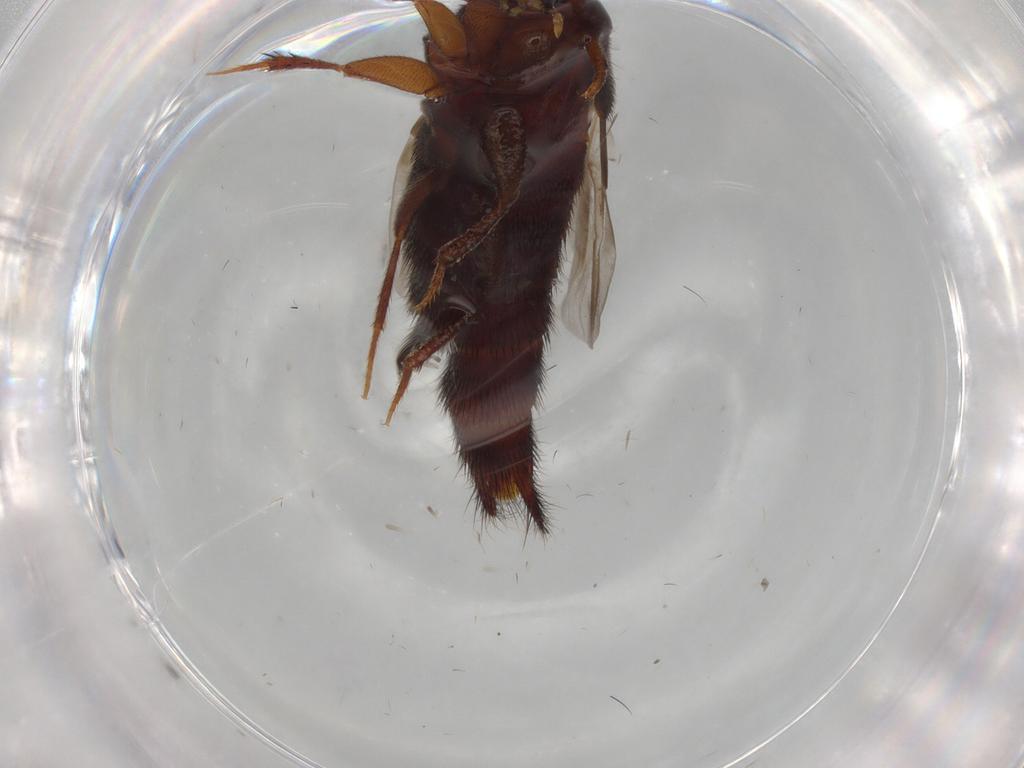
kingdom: Animalia
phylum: Arthropoda
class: Insecta
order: Coleoptera
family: Staphylinidae
